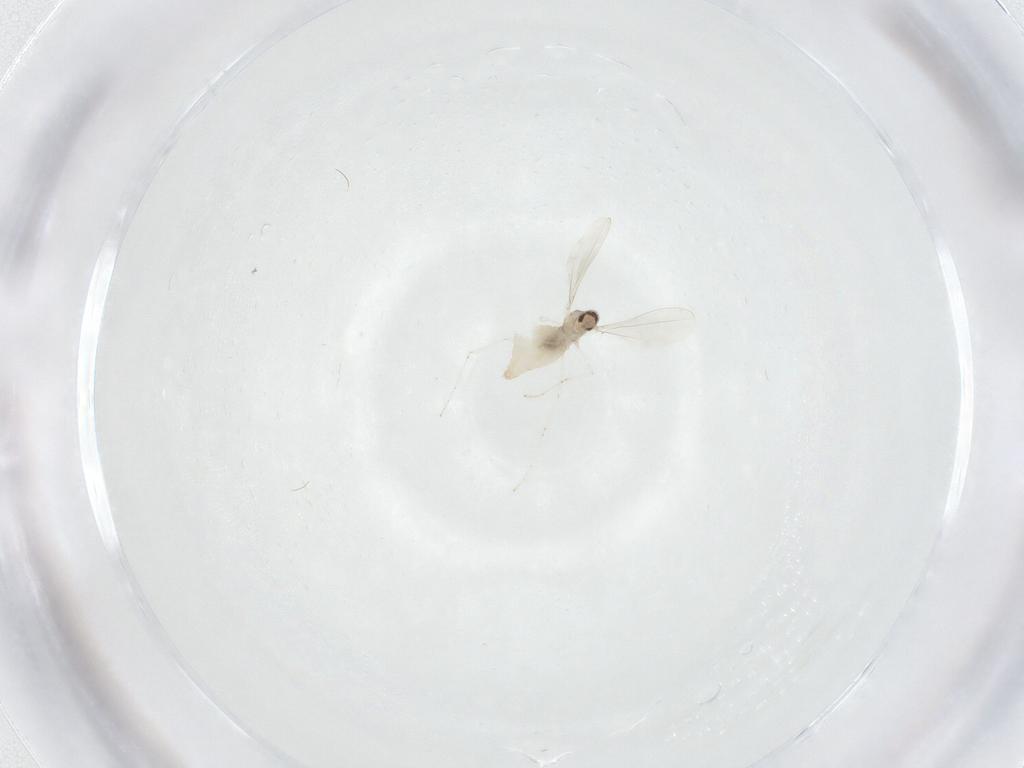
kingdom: Animalia
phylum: Arthropoda
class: Insecta
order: Diptera
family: Cecidomyiidae
